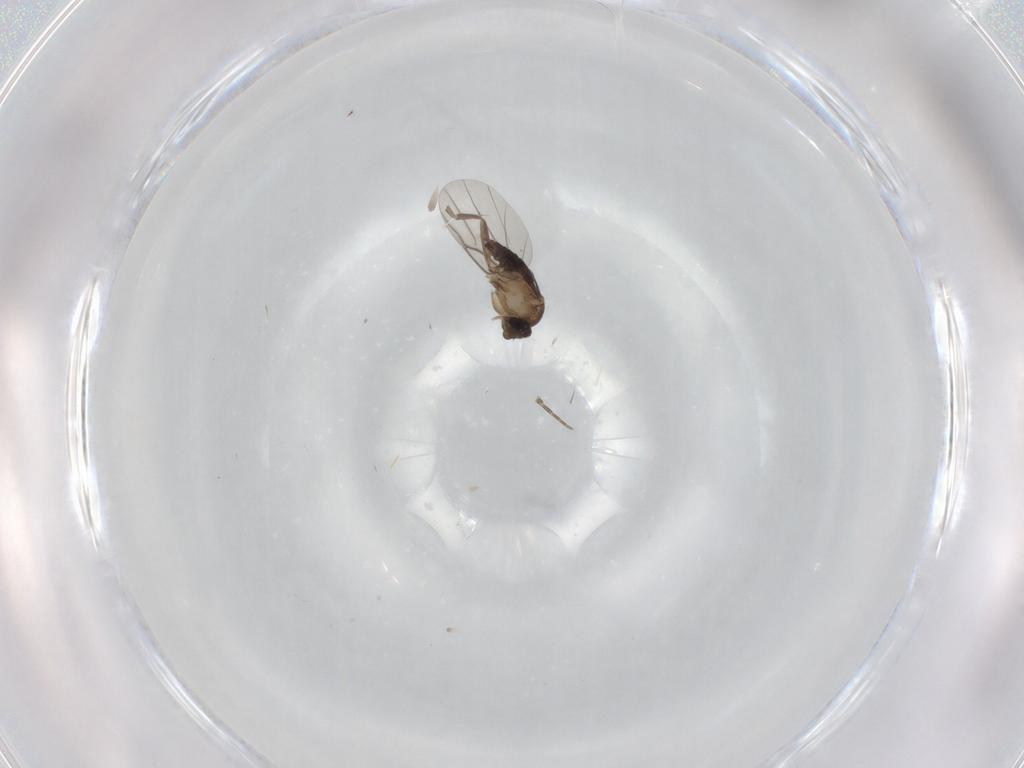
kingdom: Animalia
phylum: Arthropoda
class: Insecta
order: Diptera
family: Phoridae
